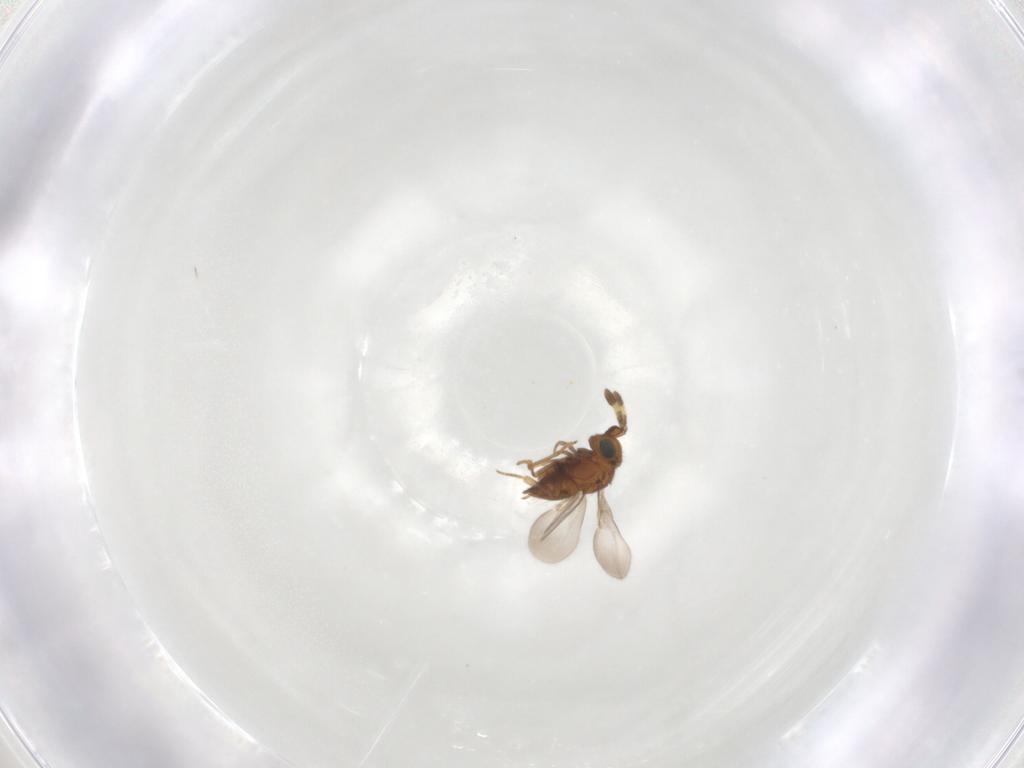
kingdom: Animalia
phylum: Arthropoda
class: Insecta
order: Hymenoptera
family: Encyrtidae
